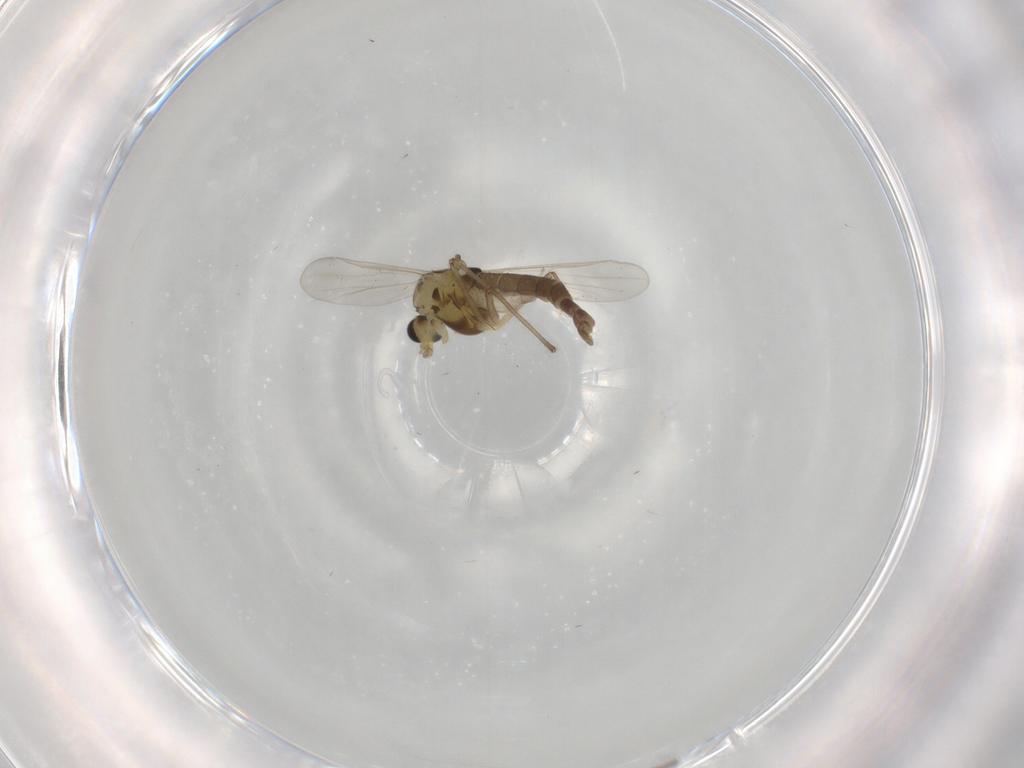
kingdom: Animalia
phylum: Arthropoda
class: Insecta
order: Diptera
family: Chironomidae
